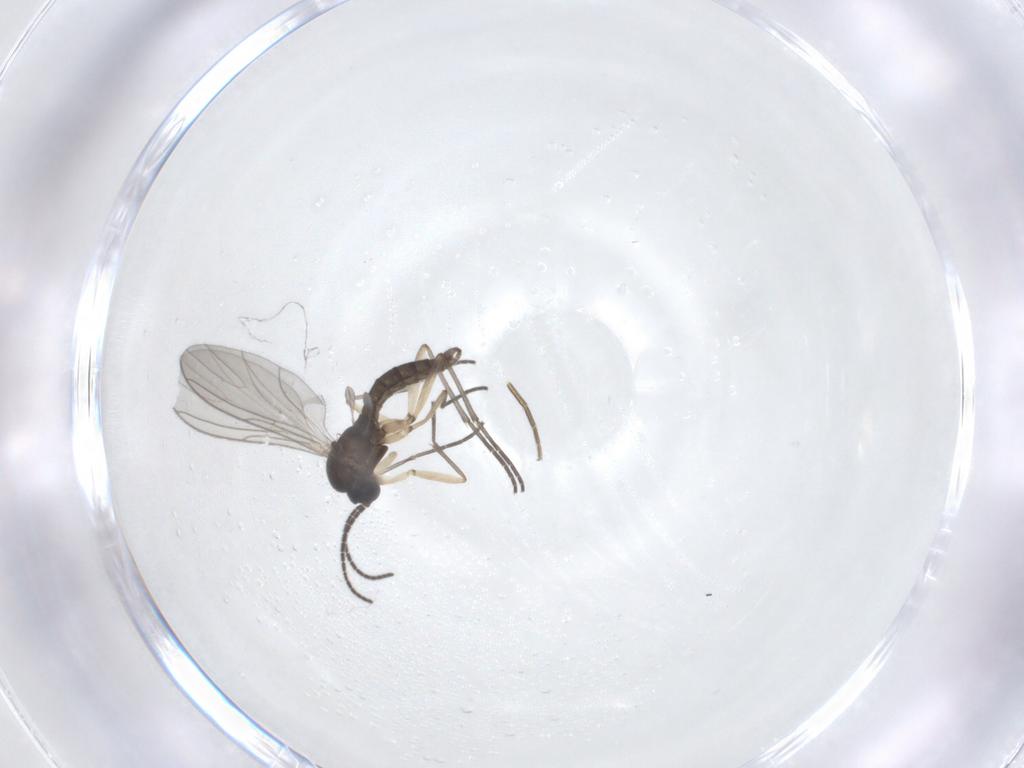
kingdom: Animalia
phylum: Arthropoda
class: Insecta
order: Diptera
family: Sciaridae
